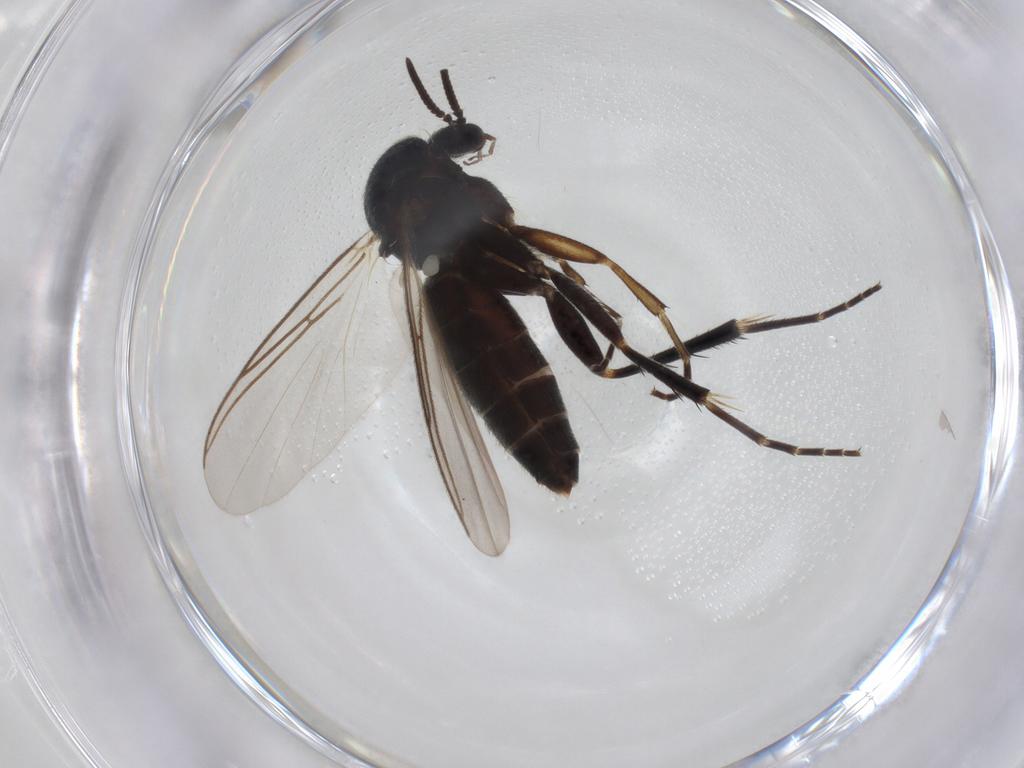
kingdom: Animalia
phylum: Arthropoda
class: Insecta
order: Diptera
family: Mycetophilidae
